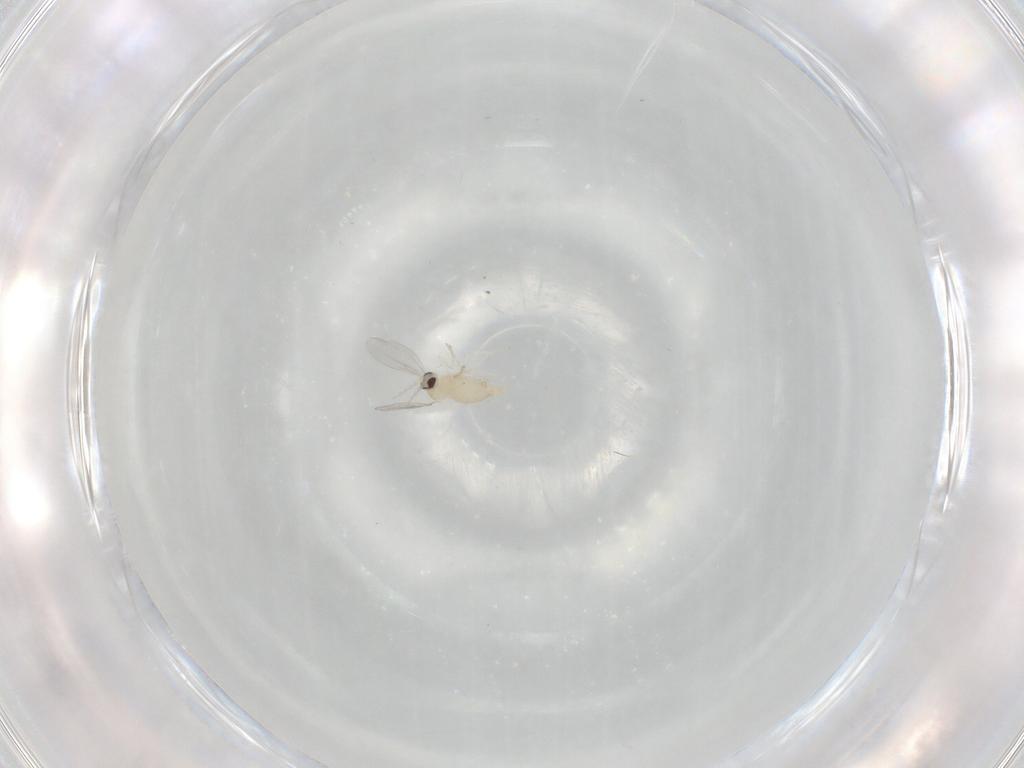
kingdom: Animalia
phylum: Arthropoda
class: Insecta
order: Diptera
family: Cecidomyiidae
